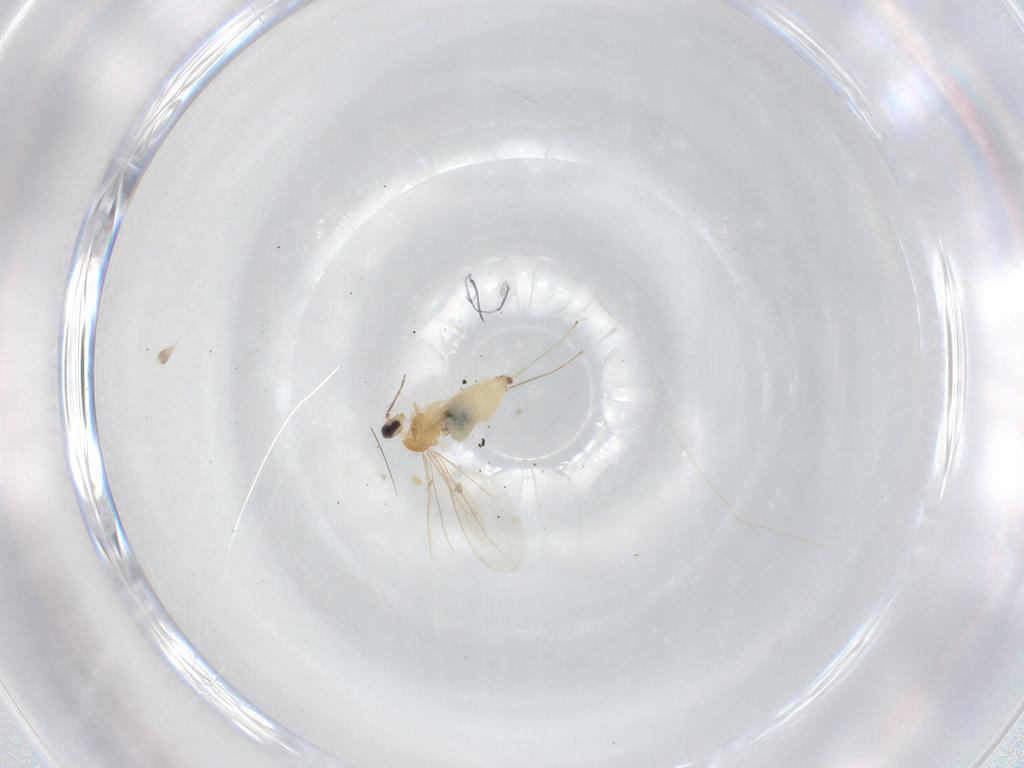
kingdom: Animalia
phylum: Arthropoda
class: Insecta
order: Diptera
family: Cecidomyiidae
